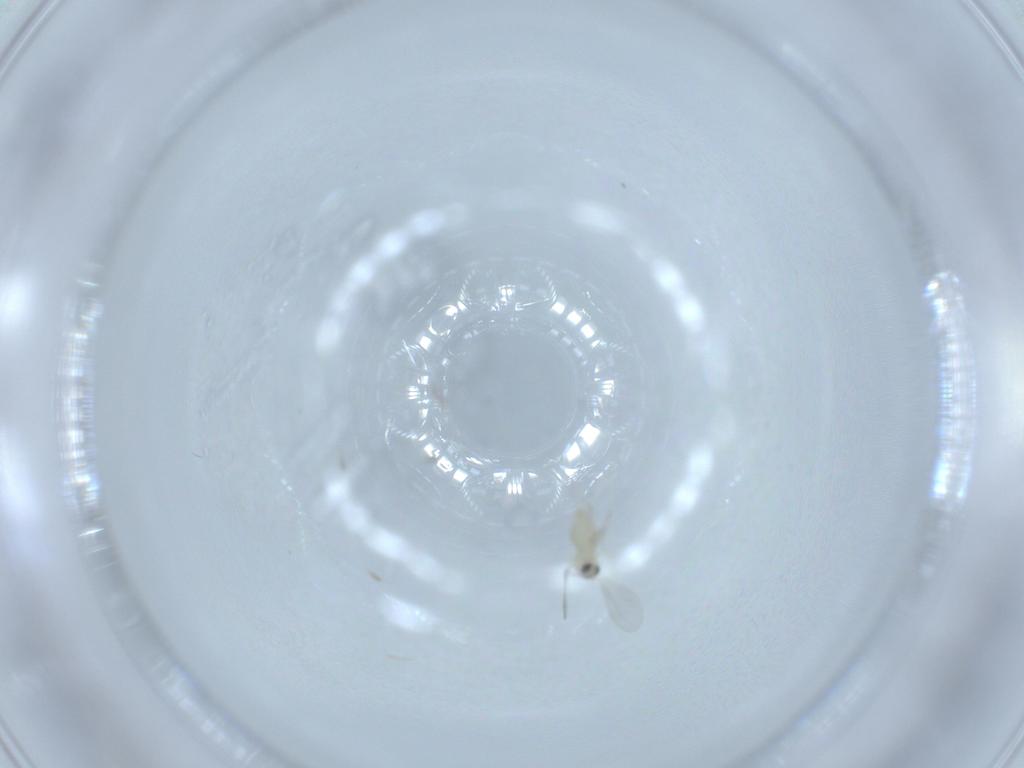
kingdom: Animalia
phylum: Arthropoda
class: Insecta
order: Diptera
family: Cecidomyiidae
